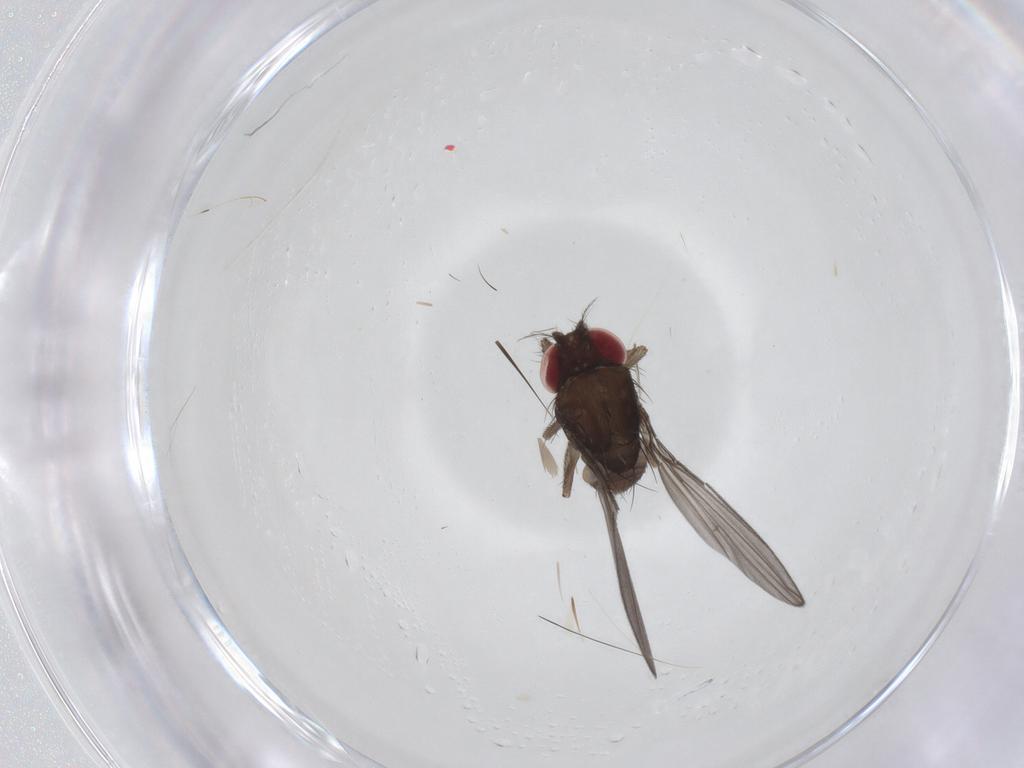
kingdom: Animalia
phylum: Arthropoda
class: Insecta
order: Diptera
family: Drosophilidae
